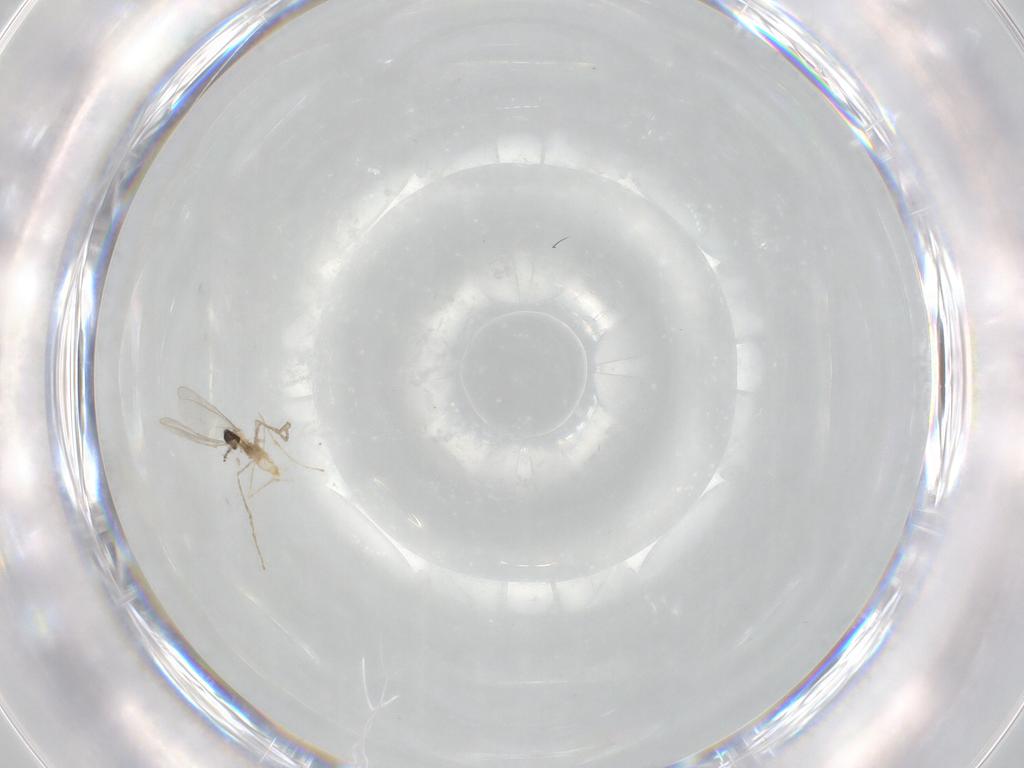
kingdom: Animalia
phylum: Arthropoda
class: Insecta
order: Diptera
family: Cecidomyiidae
